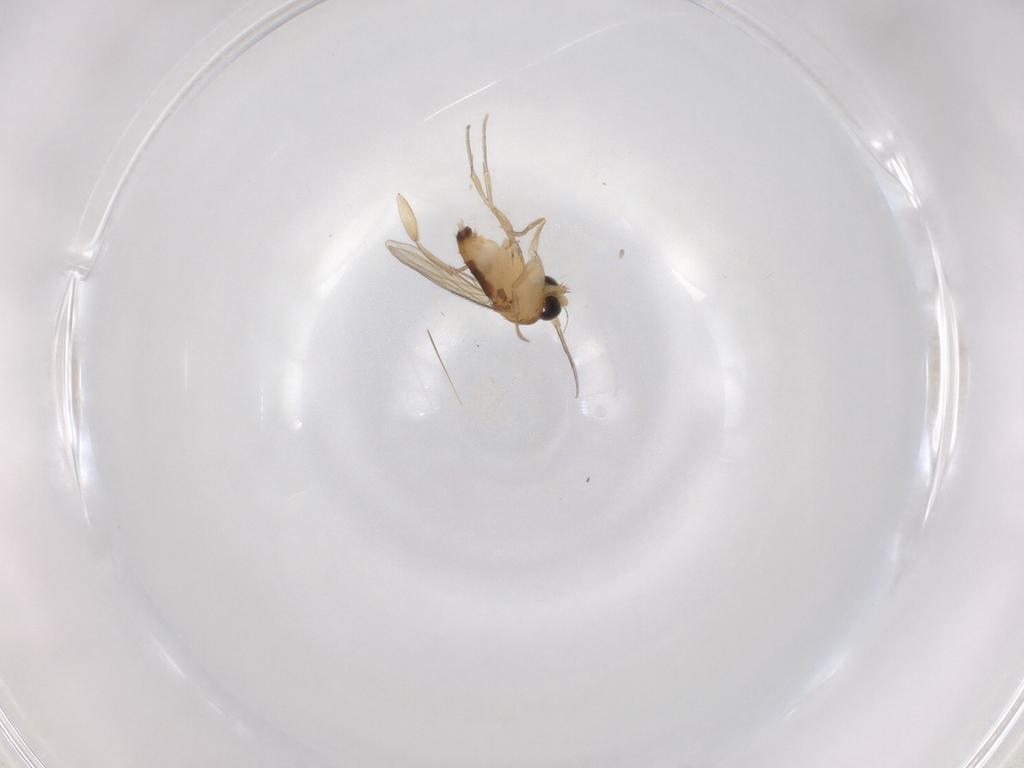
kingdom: Animalia
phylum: Arthropoda
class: Insecta
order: Diptera
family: Phoridae
